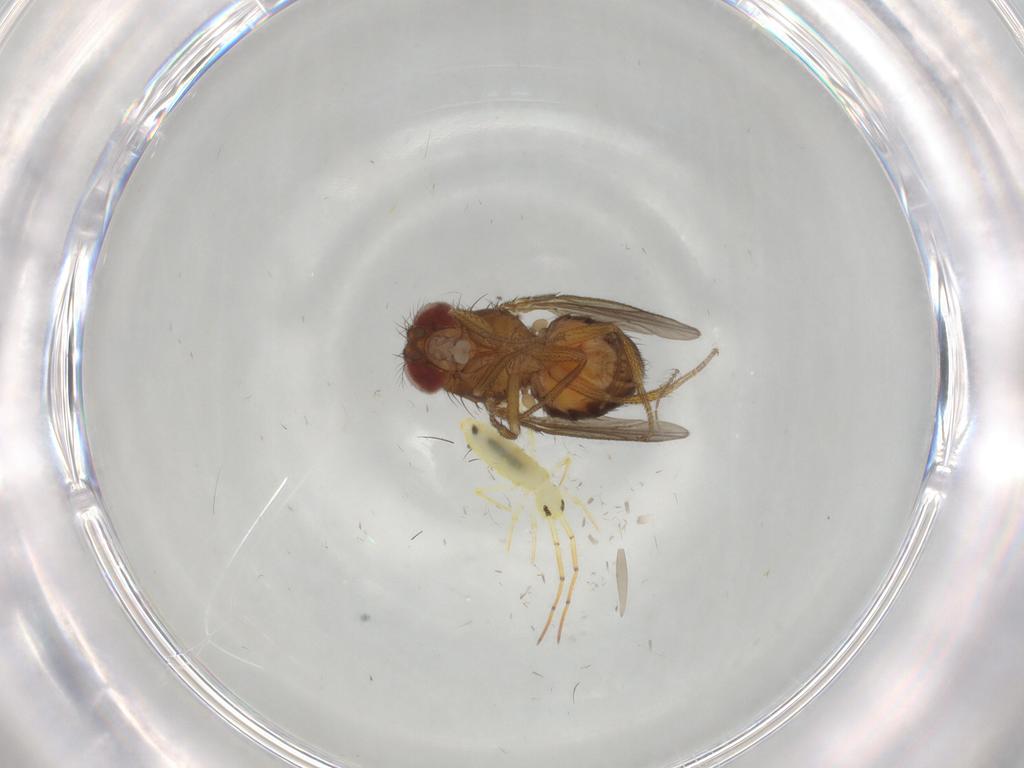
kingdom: Animalia
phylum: Arthropoda
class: Insecta
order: Diptera
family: Drosophilidae
